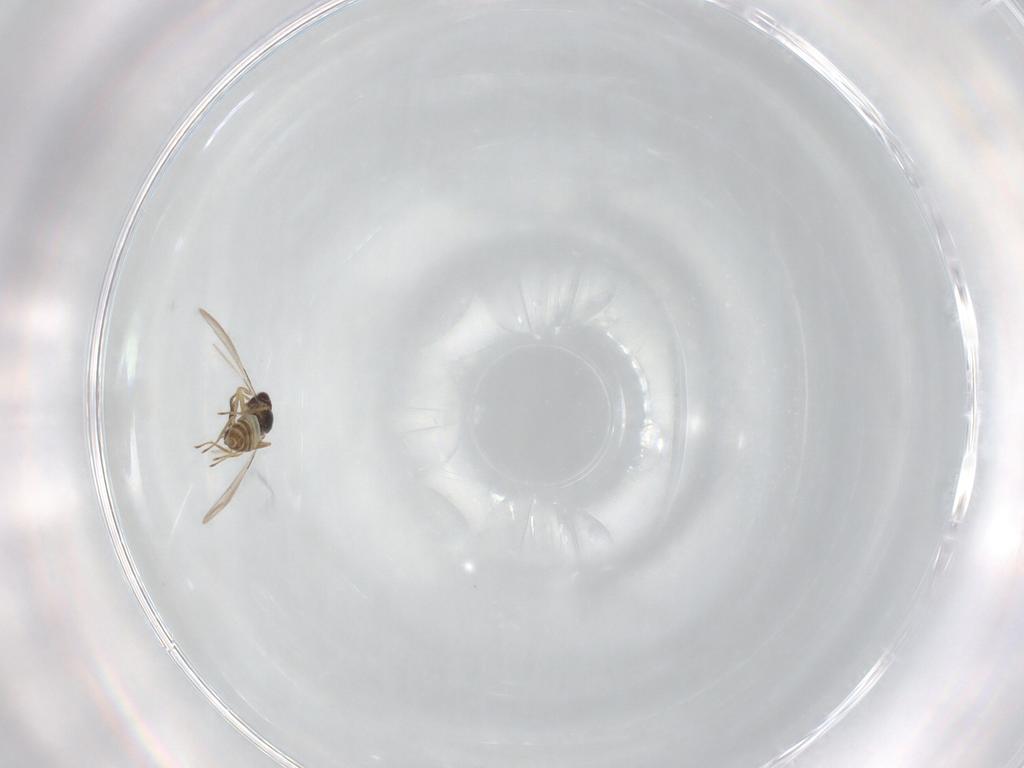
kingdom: Animalia
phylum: Arthropoda
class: Insecta
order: Hymenoptera
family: Mymaridae
